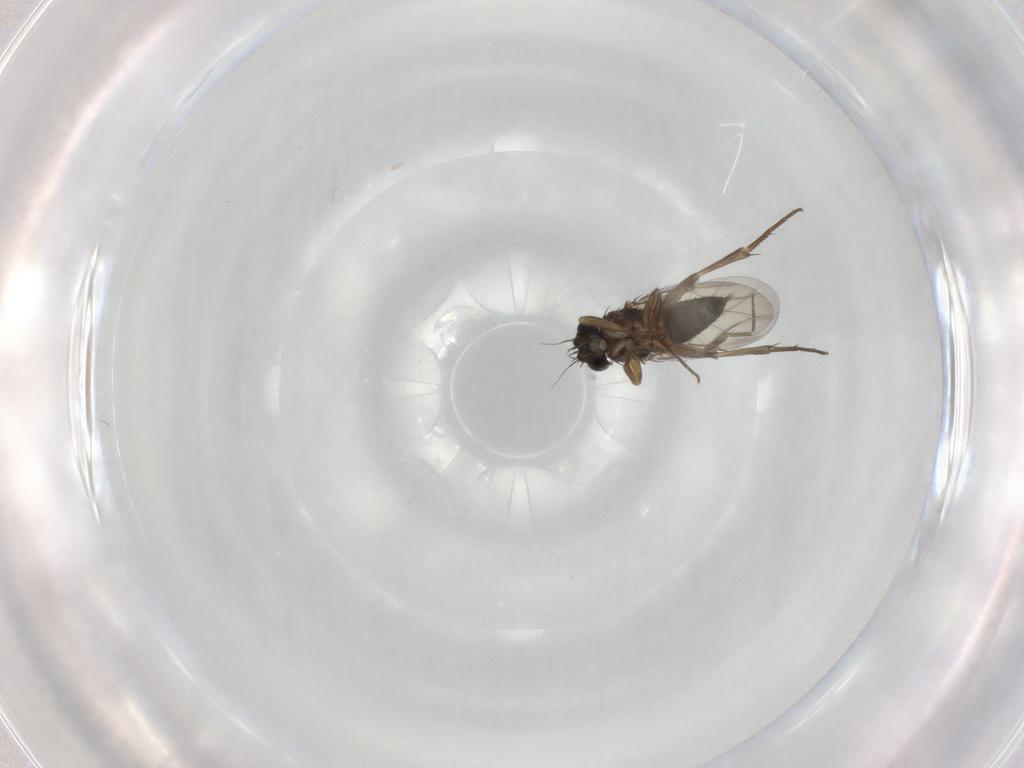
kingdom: Animalia
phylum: Arthropoda
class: Insecta
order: Diptera
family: Phoridae
